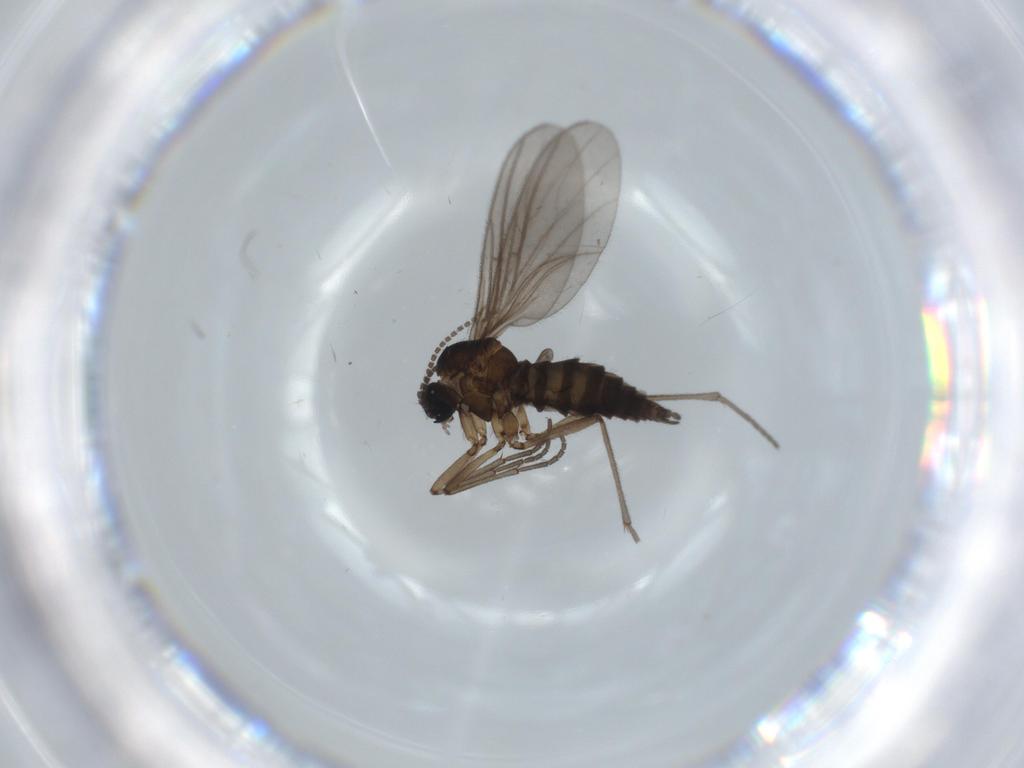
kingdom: Animalia
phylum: Arthropoda
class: Insecta
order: Diptera
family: Sciaridae
